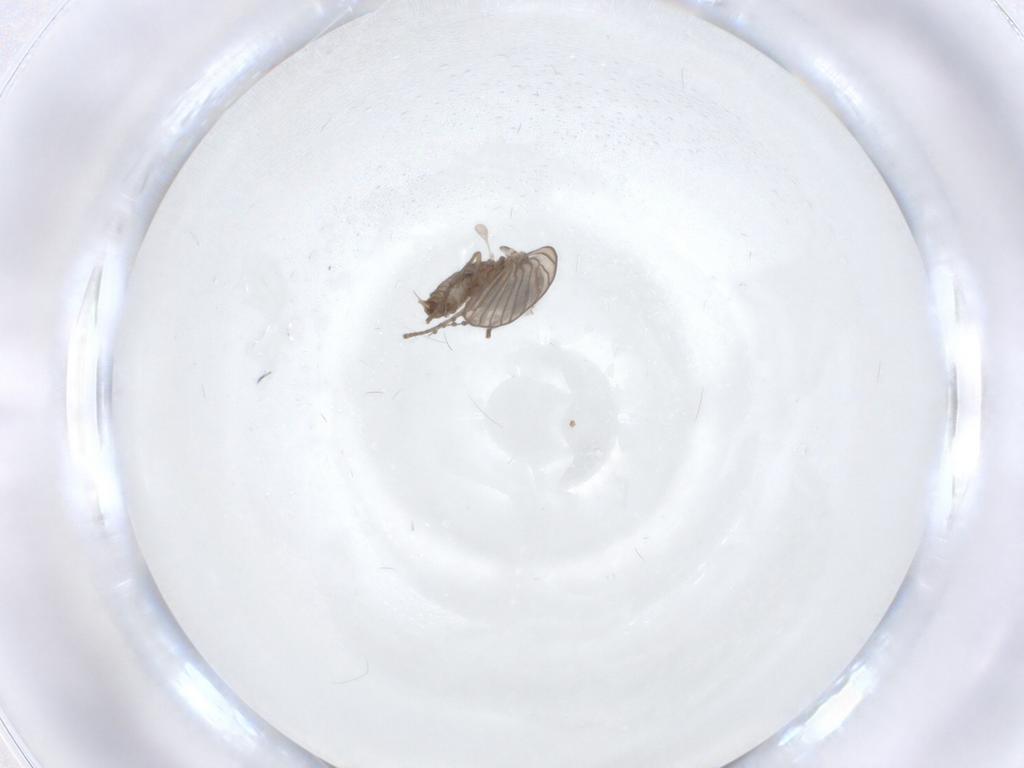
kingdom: Animalia
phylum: Arthropoda
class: Insecta
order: Diptera
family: Psychodidae
